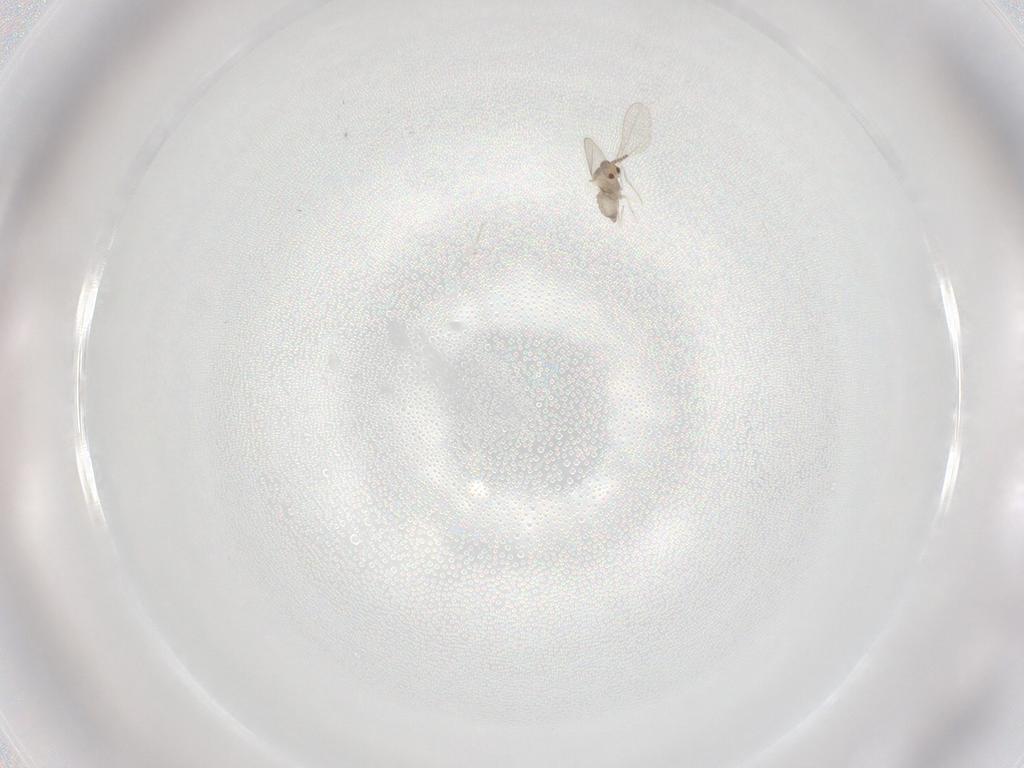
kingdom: Animalia
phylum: Arthropoda
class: Insecta
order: Diptera
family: Cecidomyiidae
